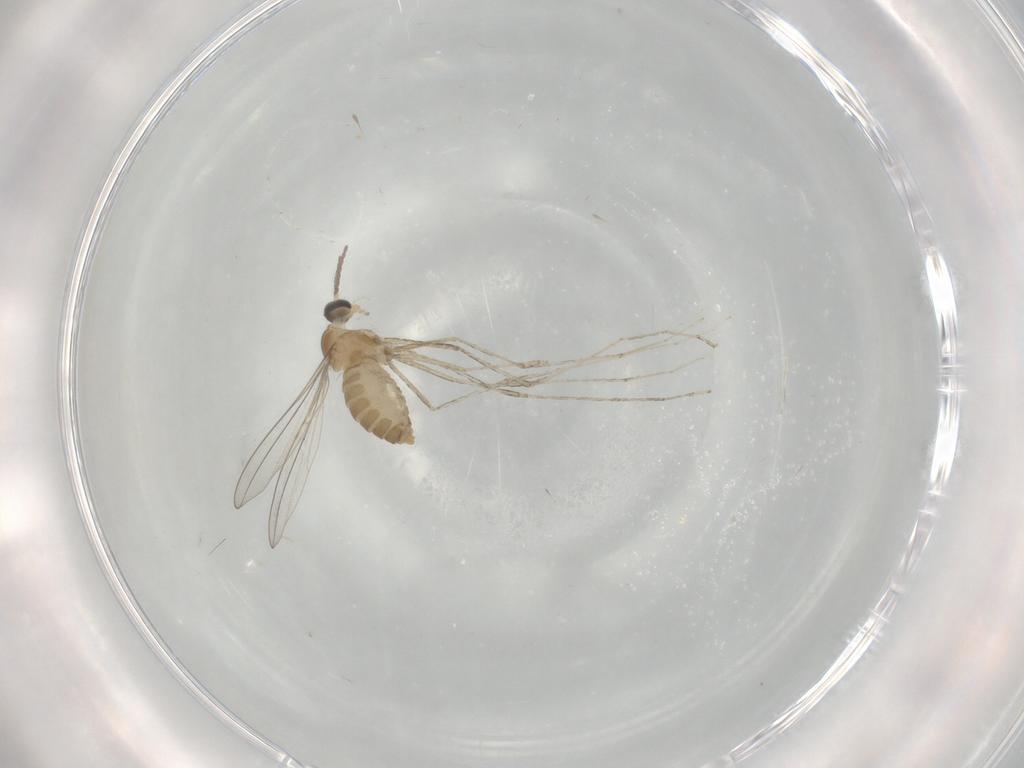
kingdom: Animalia
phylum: Arthropoda
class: Insecta
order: Diptera
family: Cecidomyiidae
